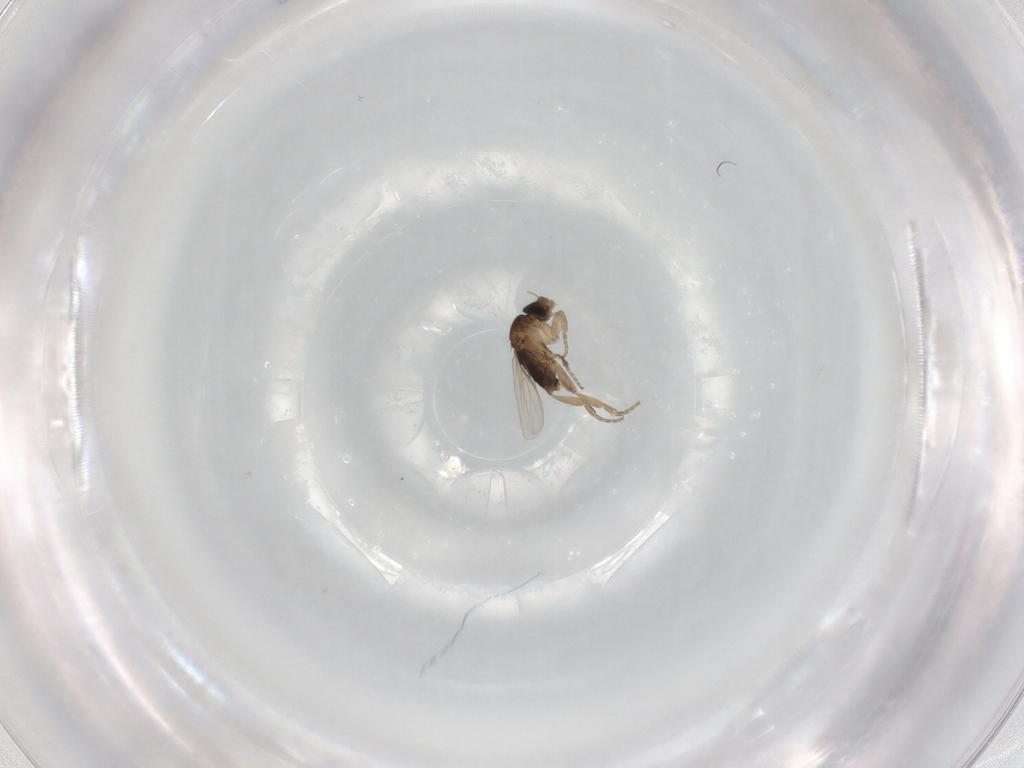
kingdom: Animalia
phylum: Arthropoda
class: Insecta
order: Diptera
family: Phoridae
